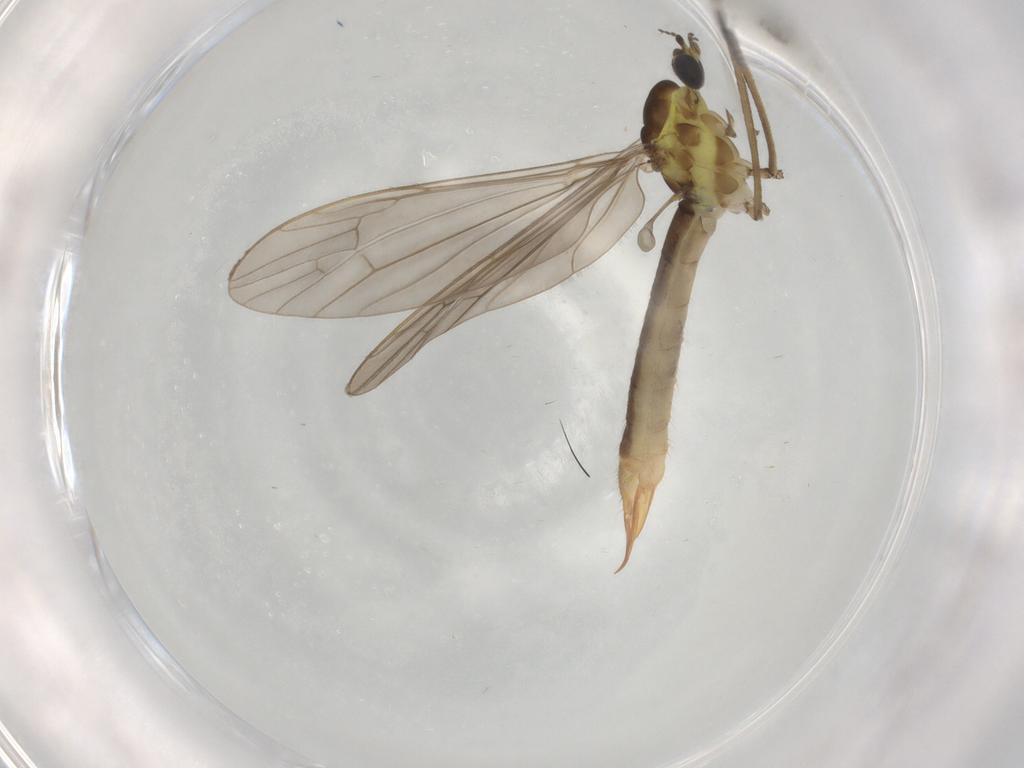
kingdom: Animalia
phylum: Arthropoda
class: Insecta
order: Diptera
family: Limoniidae
